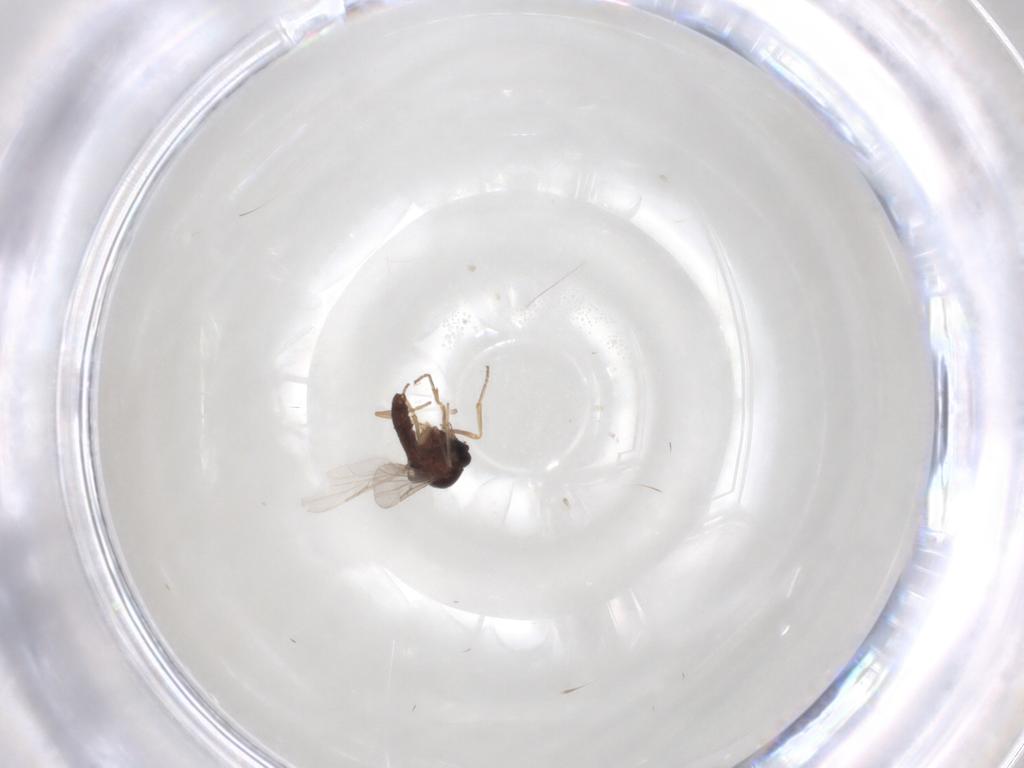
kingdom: Animalia
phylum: Arthropoda
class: Insecta
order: Diptera
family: Ceratopogonidae
